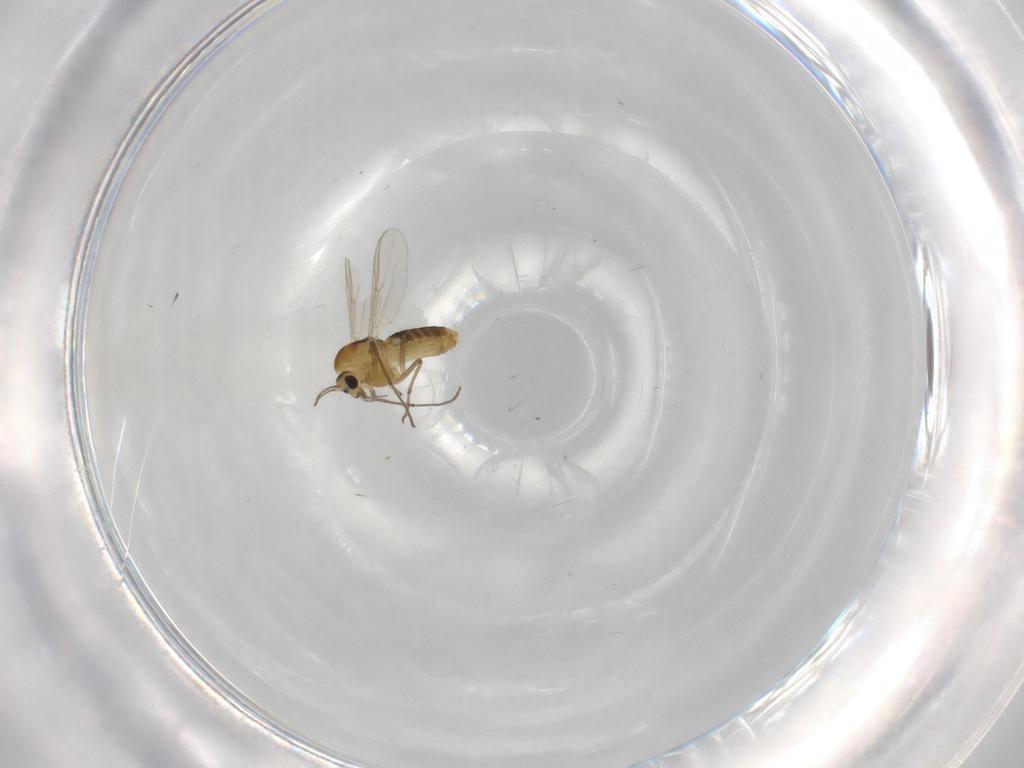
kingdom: Animalia
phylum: Arthropoda
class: Insecta
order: Diptera
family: Chironomidae
